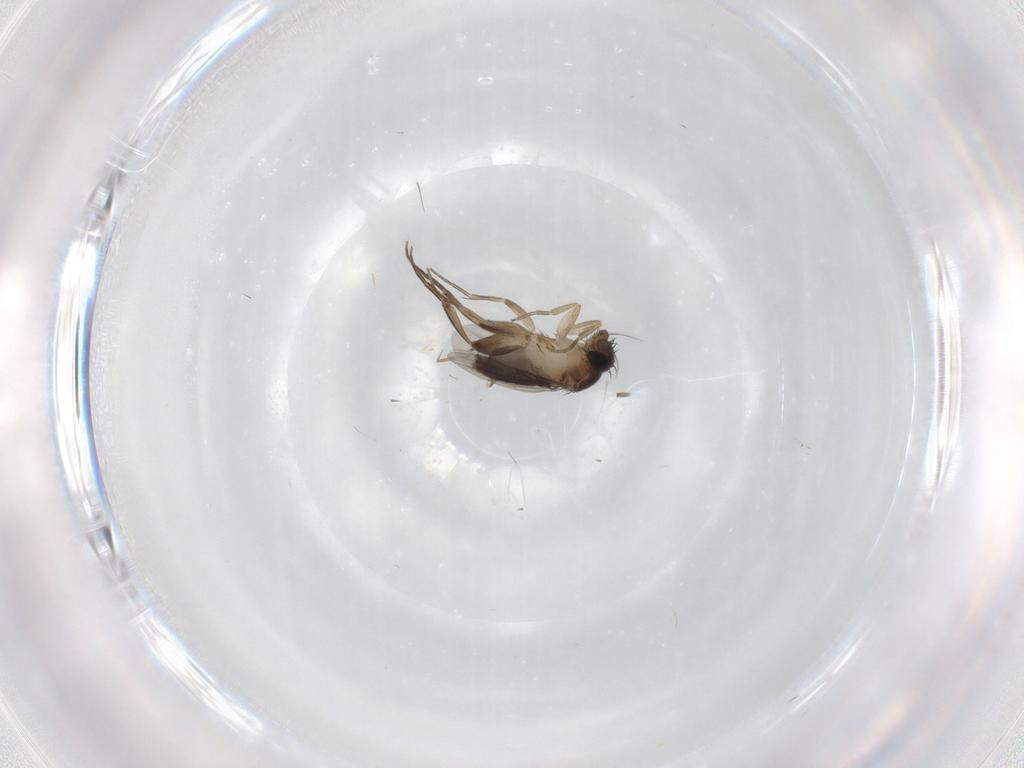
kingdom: Animalia
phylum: Arthropoda
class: Insecta
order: Diptera
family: Phoridae
